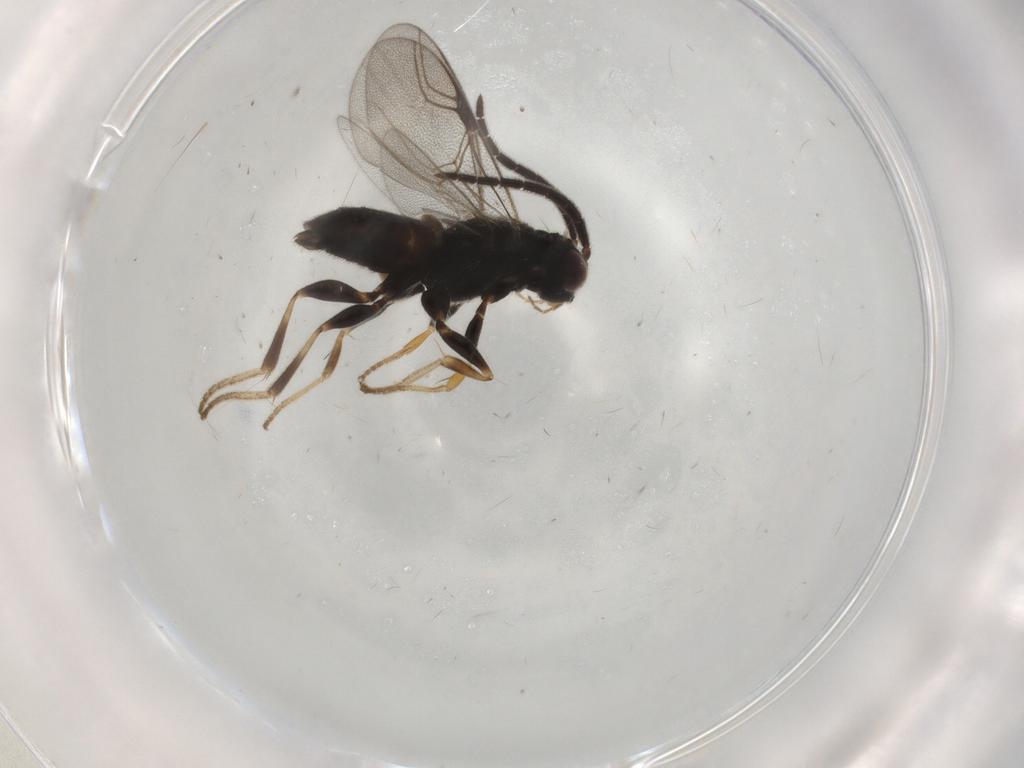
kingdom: Animalia
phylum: Arthropoda
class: Insecta
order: Hymenoptera
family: Dryinidae
